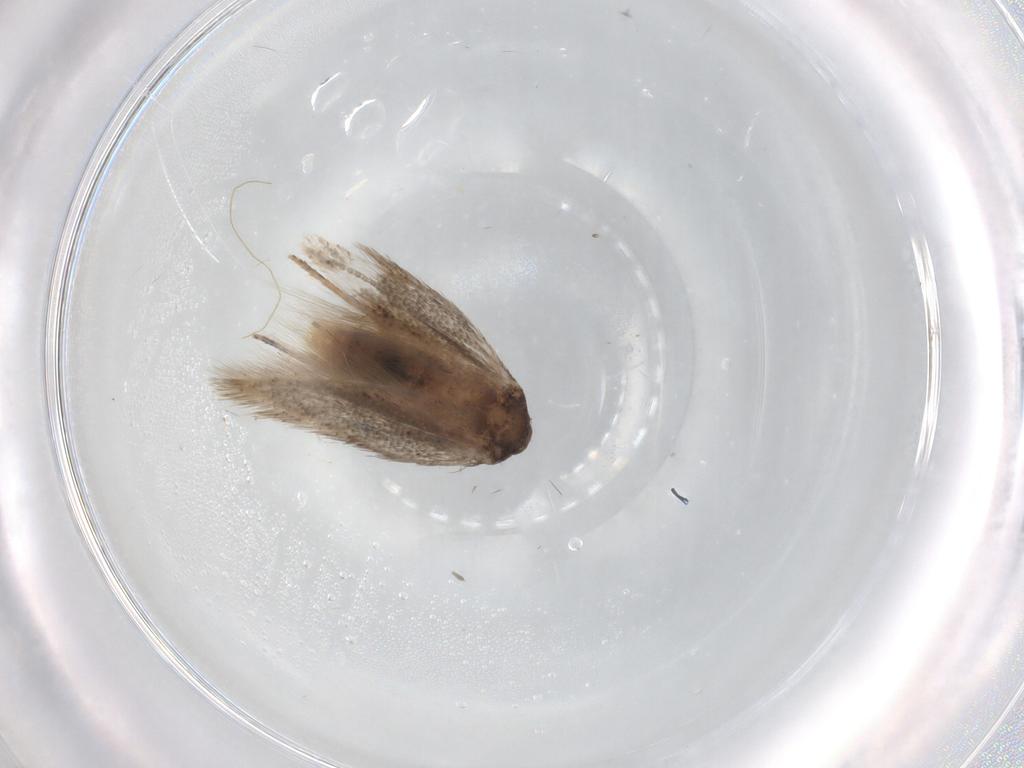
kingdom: Animalia
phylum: Arthropoda
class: Insecta
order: Lepidoptera
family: Elachistidae
